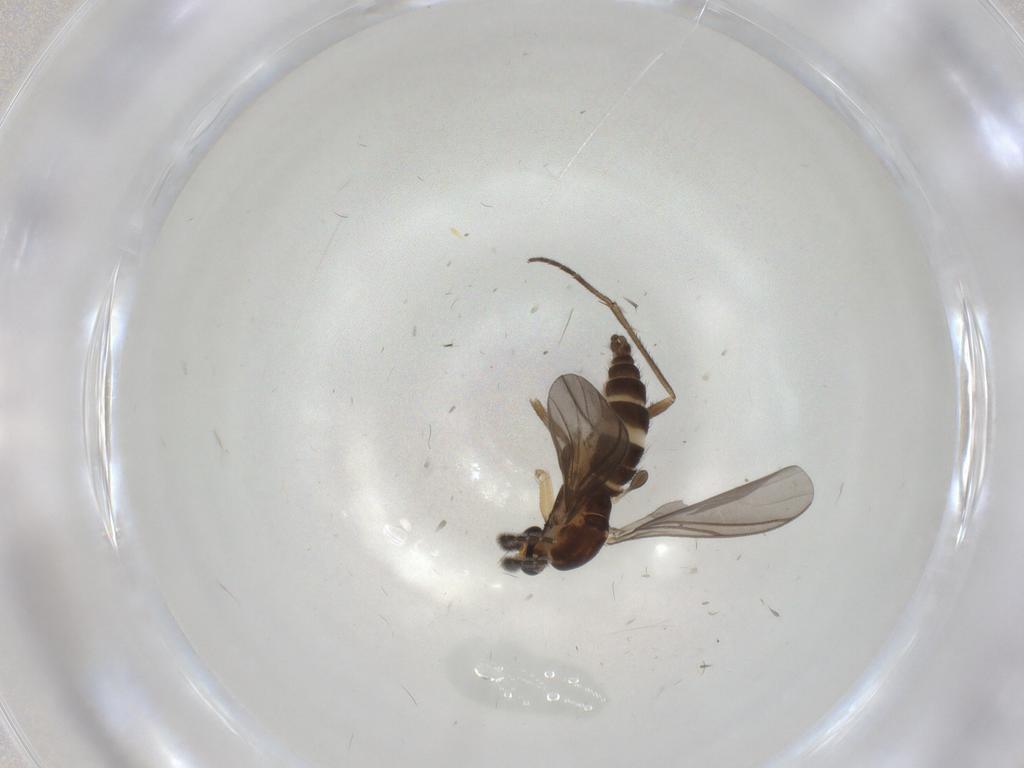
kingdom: Animalia
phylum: Arthropoda
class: Insecta
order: Diptera
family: Sciaridae
